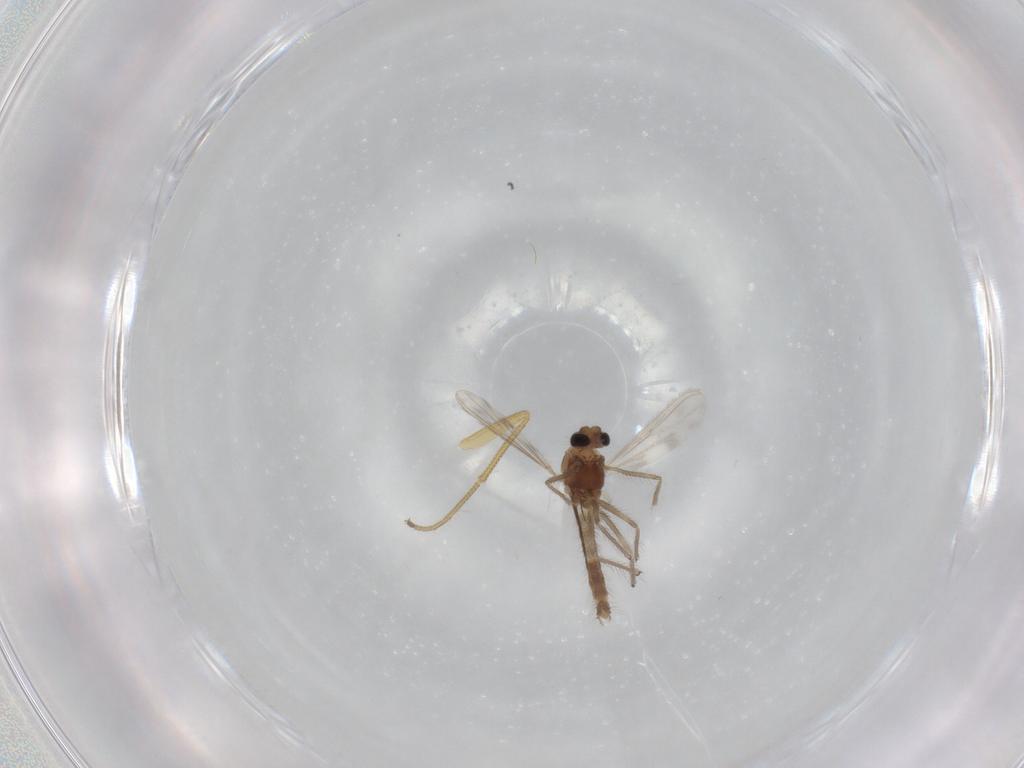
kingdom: Animalia
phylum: Arthropoda
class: Insecta
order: Diptera
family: Chironomidae
